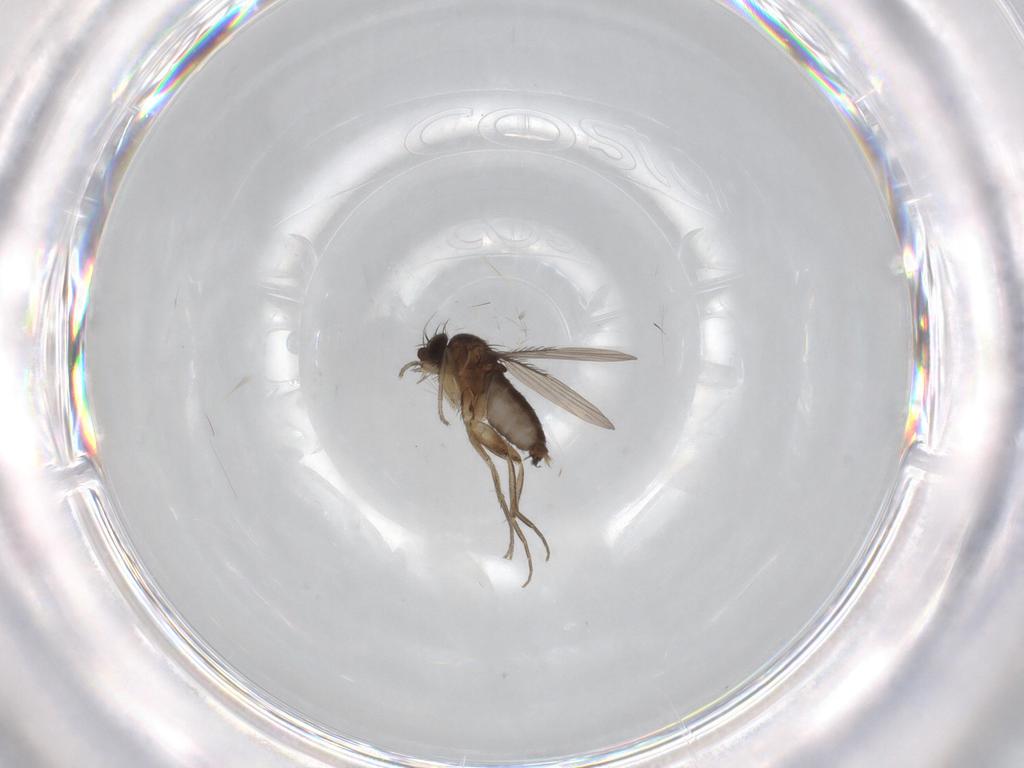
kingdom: Animalia
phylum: Arthropoda
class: Insecta
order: Diptera
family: Phoridae
